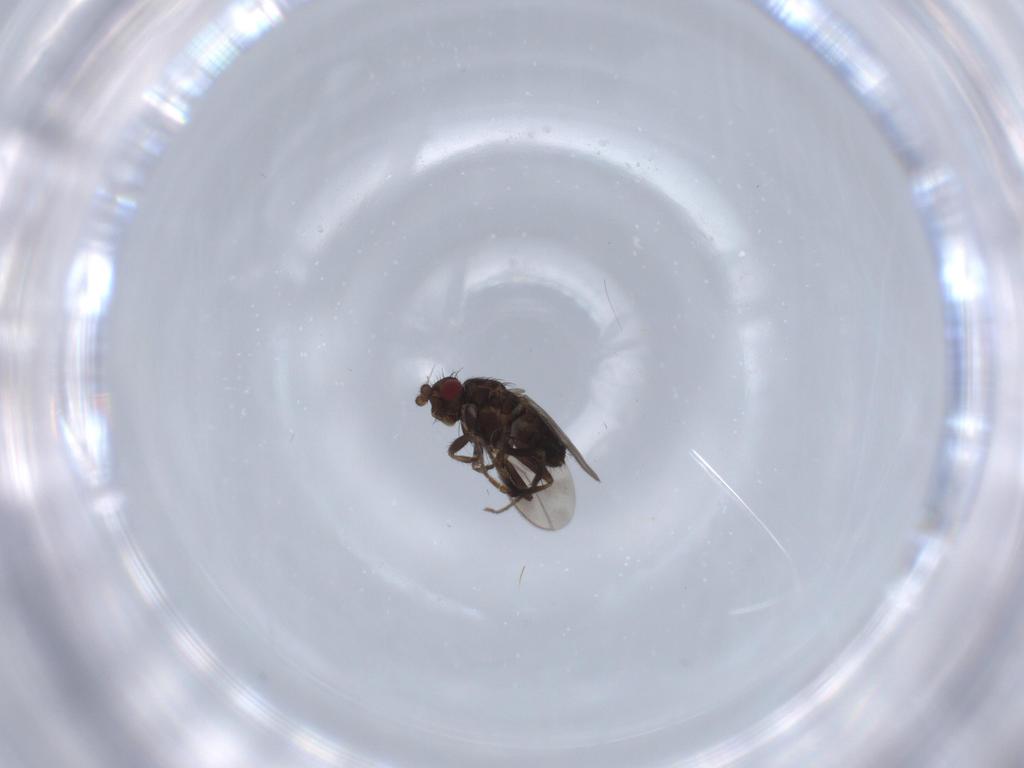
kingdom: Animalia
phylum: Arthropoda
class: Insecta
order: Diptera
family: Sphaeroceridae
